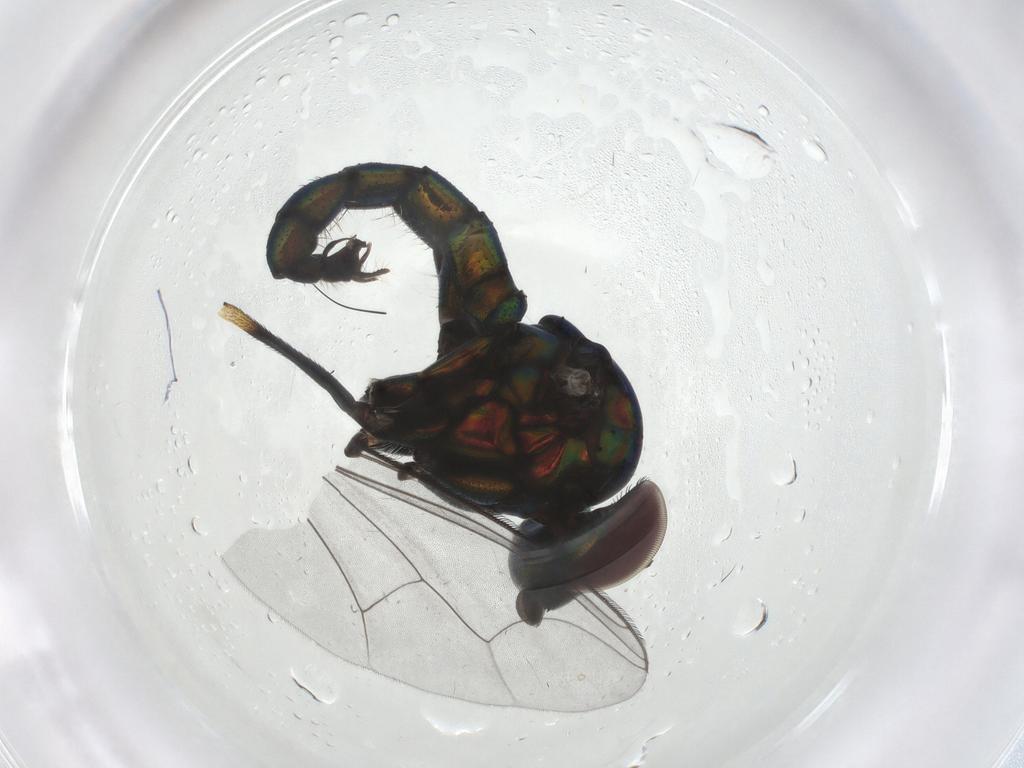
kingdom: Animalia
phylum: Arthropoda
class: Insecta
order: Diptera
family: Dolichopodidae
